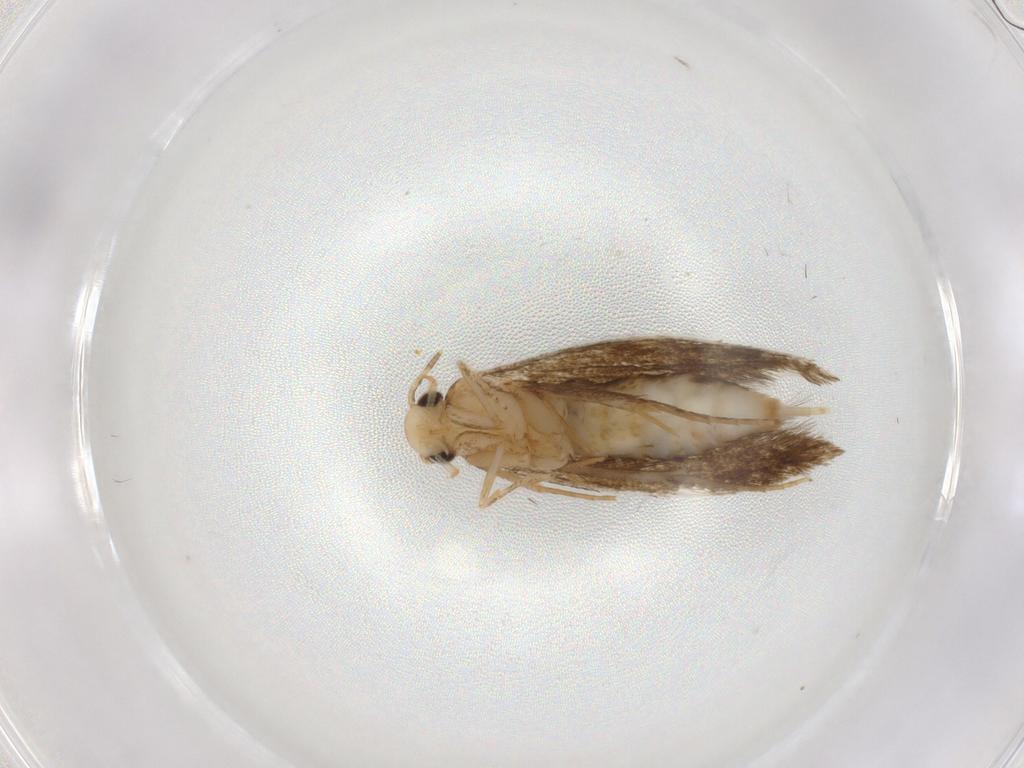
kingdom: Animalia
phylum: Arthropoda
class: Insecta
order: Lepidoptera
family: Tineidae
